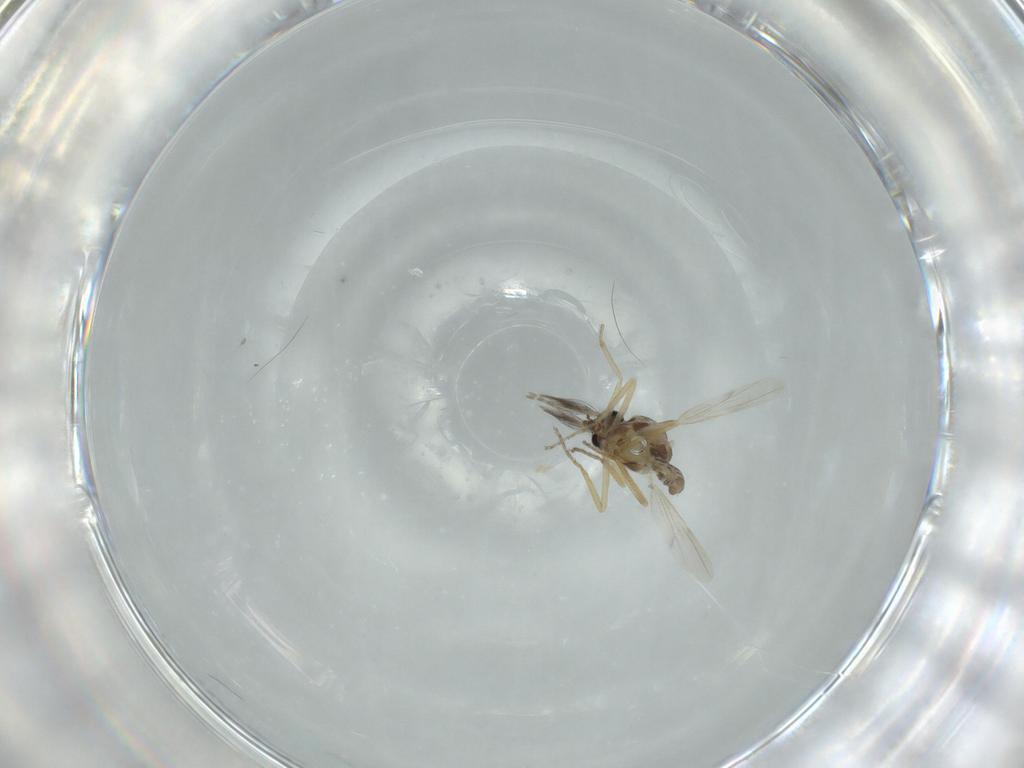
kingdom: Animalia
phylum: Arthropoda
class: Insecta
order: Diptera
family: Ceratopogonidae
